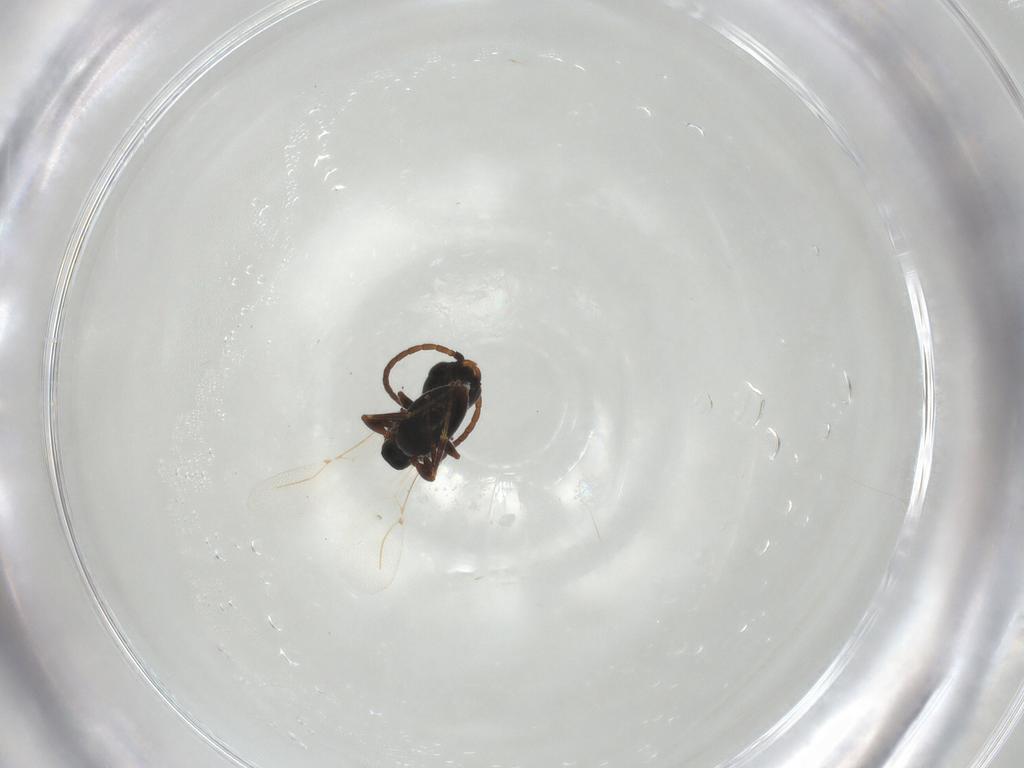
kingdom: Animalia
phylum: Arthropoda
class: Insecta
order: Hymenoptera
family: Bethylidae
